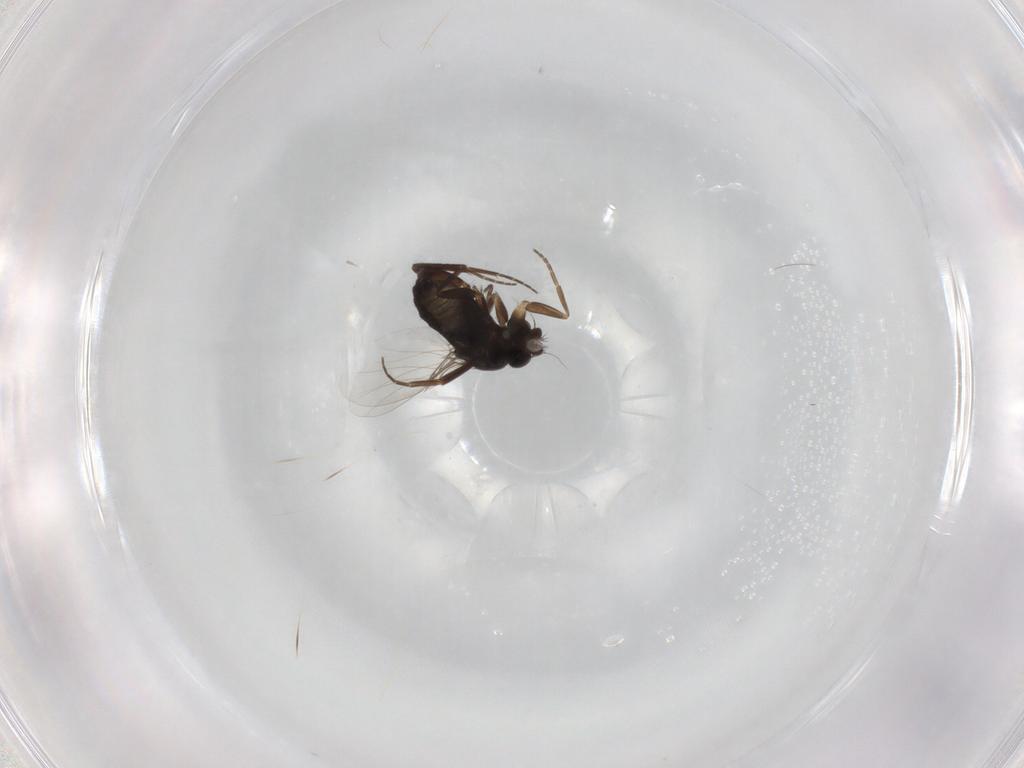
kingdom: Animalia
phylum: Arthropoda
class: Insecta
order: Diptera
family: Phoridae
